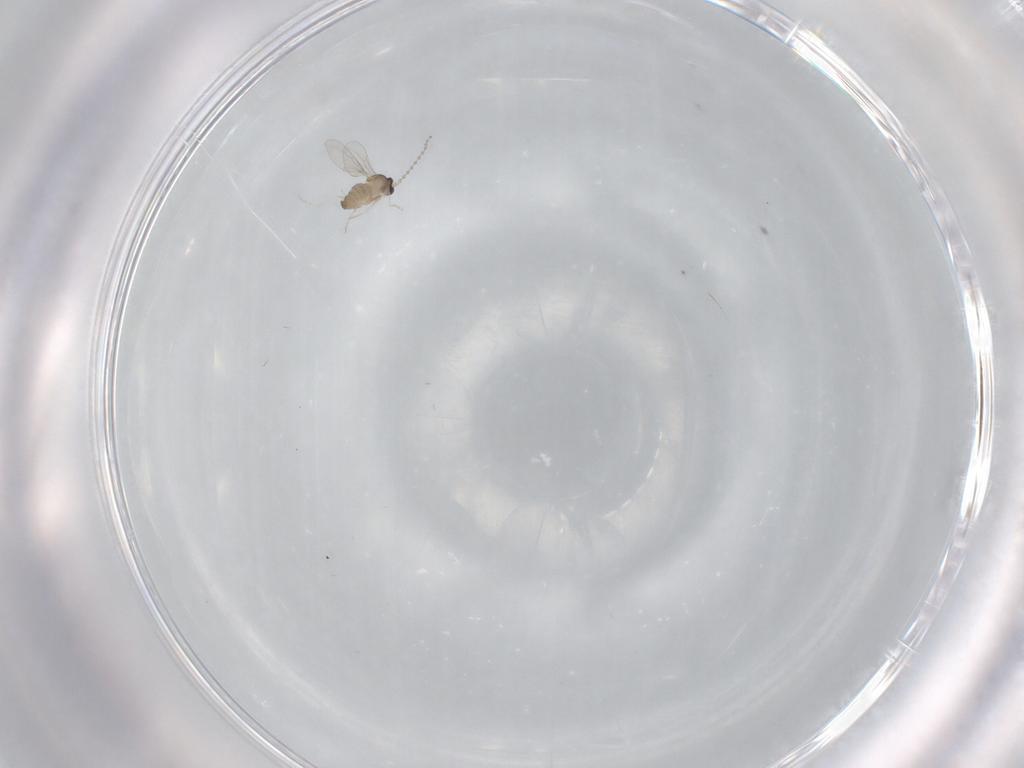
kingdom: Animalia
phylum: Arthropoda
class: Insecta
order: Diptera
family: Cecidomyiidae
